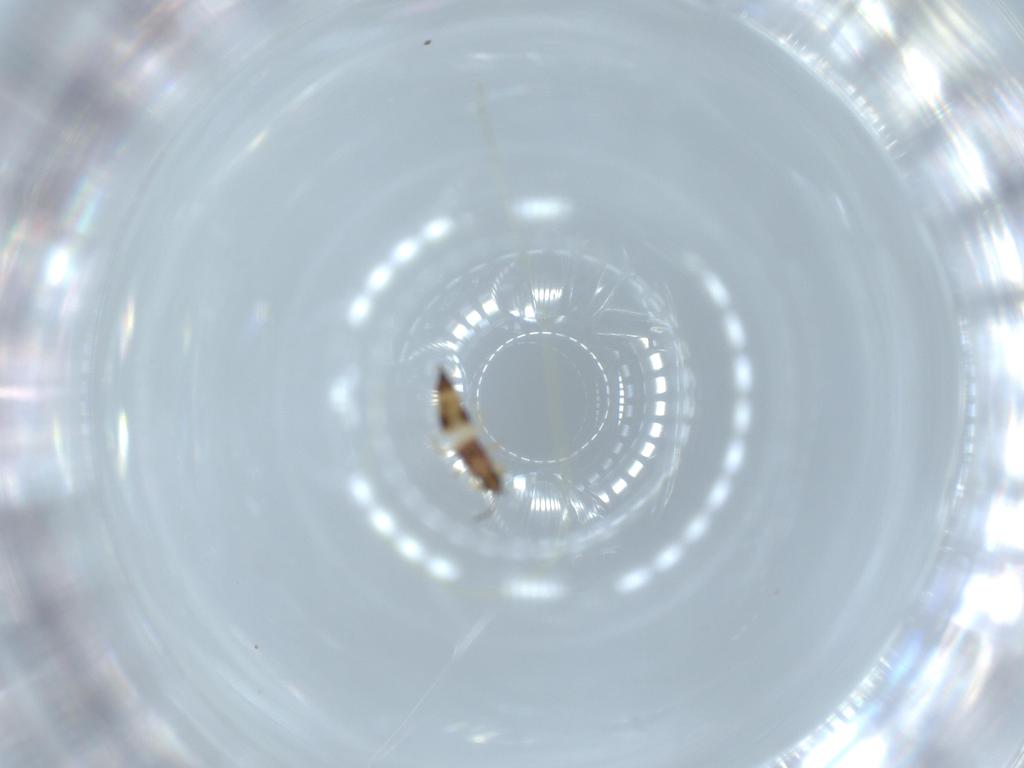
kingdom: Animalia
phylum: Arthropoda
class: Insecta
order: Thysanoptera
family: Phlaeothripidae
